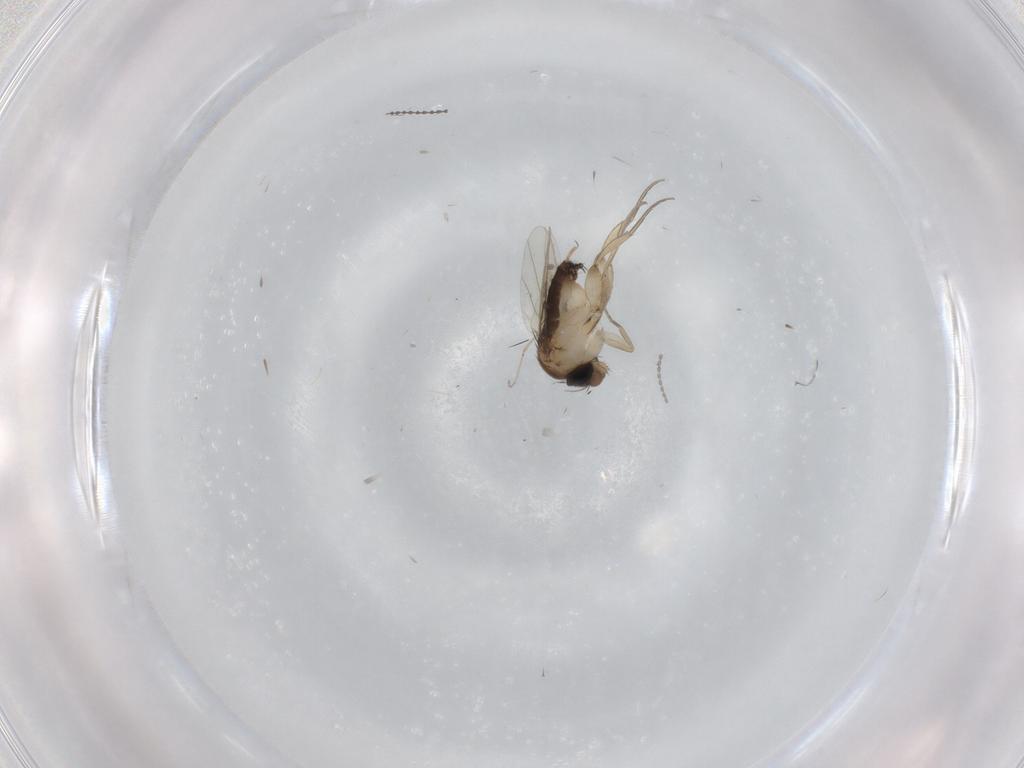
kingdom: Animalia
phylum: Arthropoda
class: Insecta
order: Diptera
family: Phoridae
